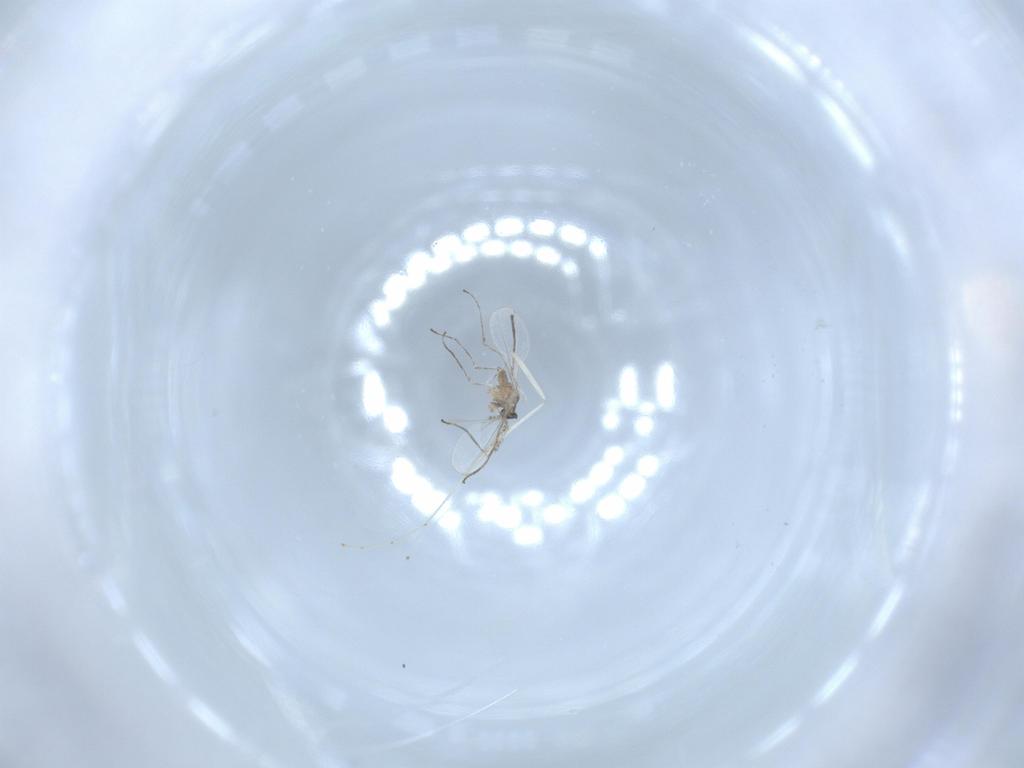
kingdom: Animalia
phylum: Arthropoda
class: Insecta
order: Diptera
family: Cecidomyiidae
